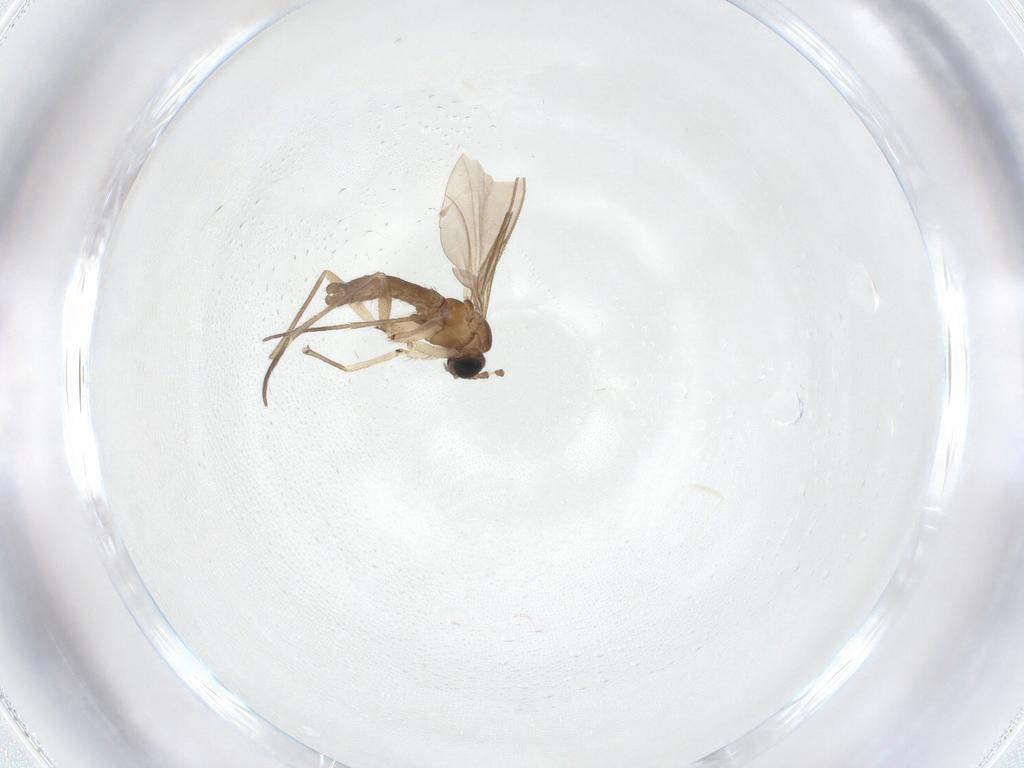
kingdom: Animalia
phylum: Arthropoda
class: Insecta
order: Diptera
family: Sciaridae
